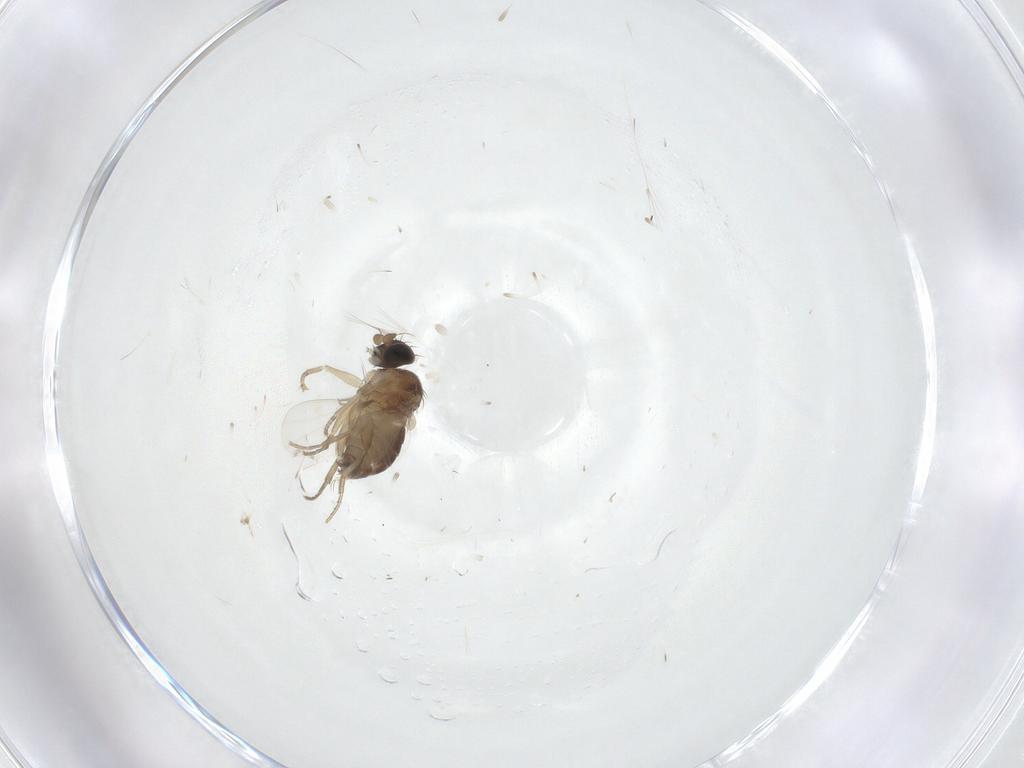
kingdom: Animalia
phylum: Arthropoda
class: Insecta
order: Diptera
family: Phoridae
